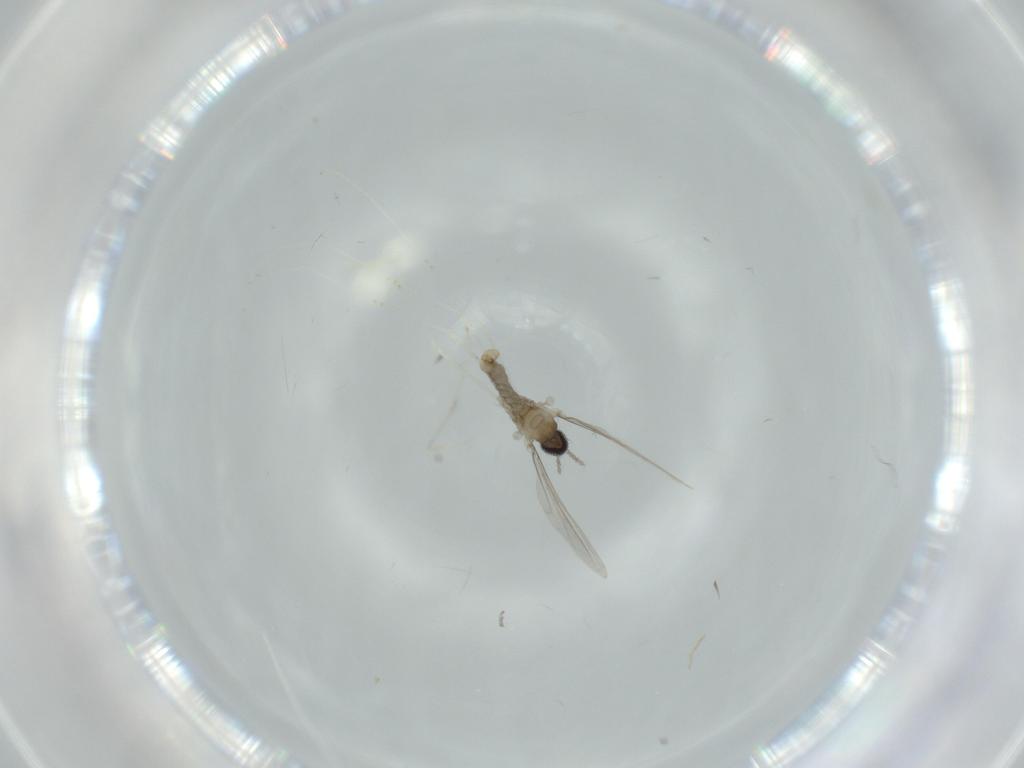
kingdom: Animalia
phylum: Arthropoda
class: Insecta
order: Diptera
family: Cecidomyiidae
